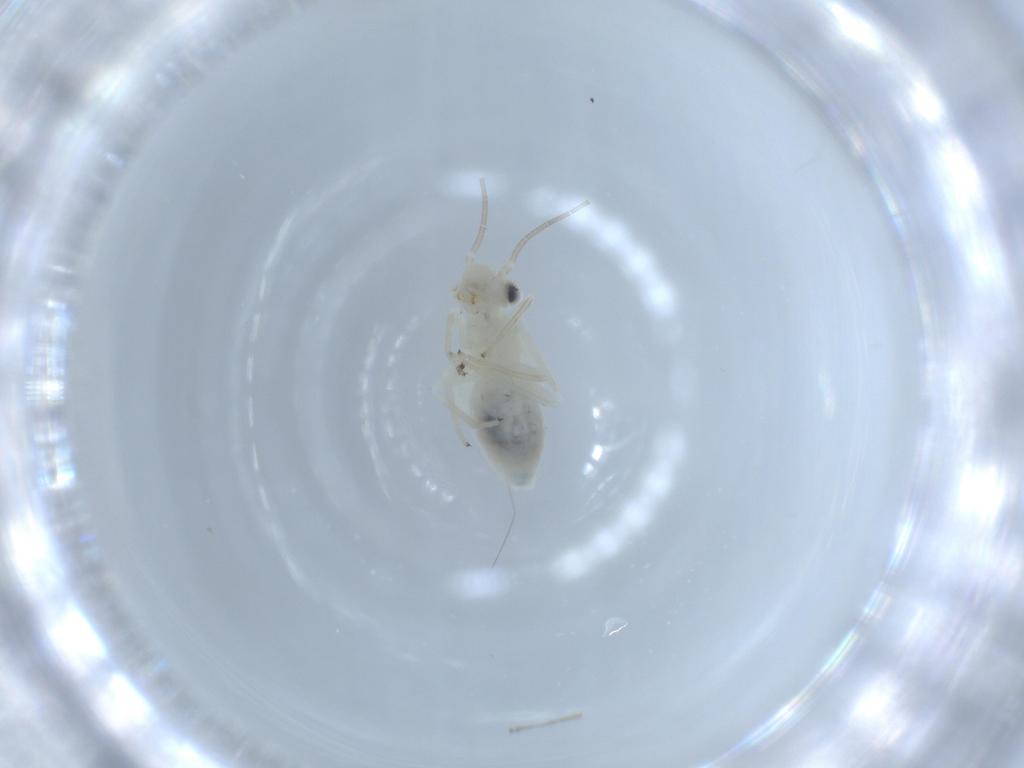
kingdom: Animalia
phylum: Arthropoda
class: Insecta
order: Psocodea
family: Caeciliusidae
